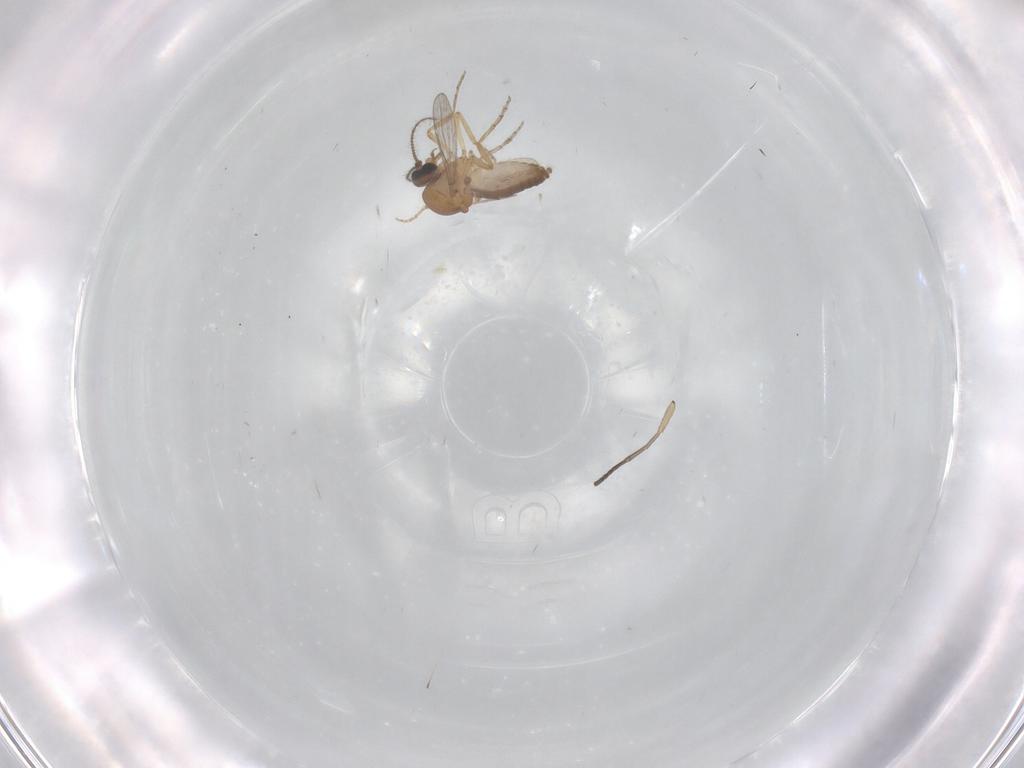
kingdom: Animalia
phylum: Arthropoda
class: Insecta
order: Diptera
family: Ceratopogonidae
